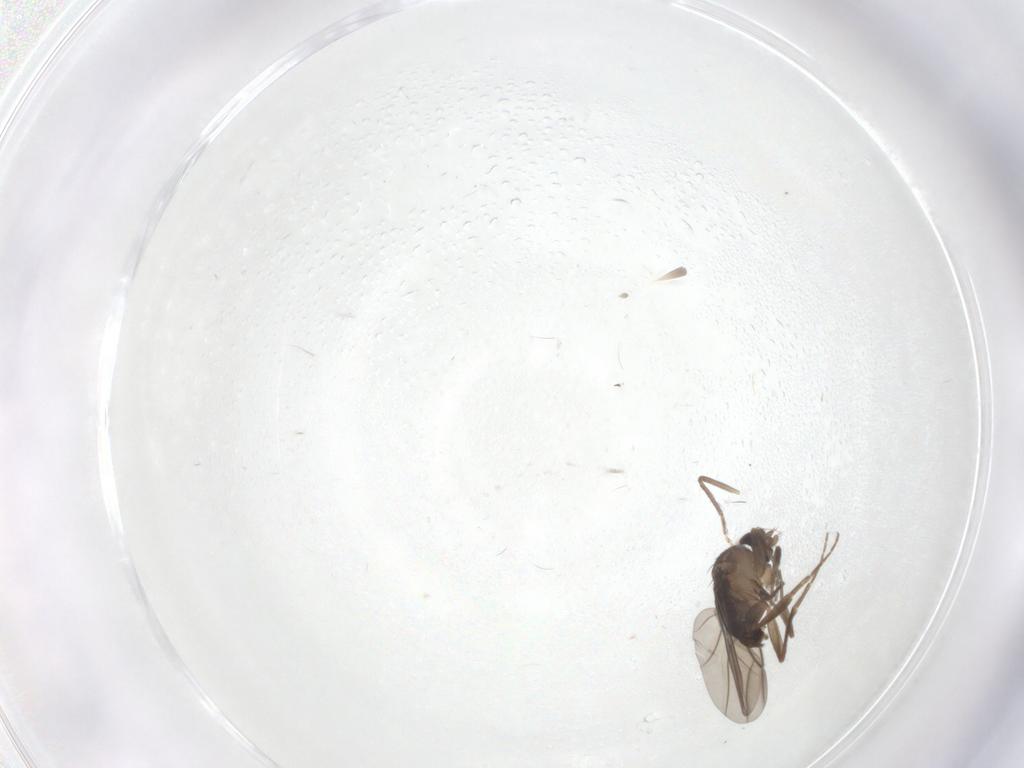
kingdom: Animalia
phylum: Arthropoda
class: Insecta
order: Diptera
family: Phoridae
